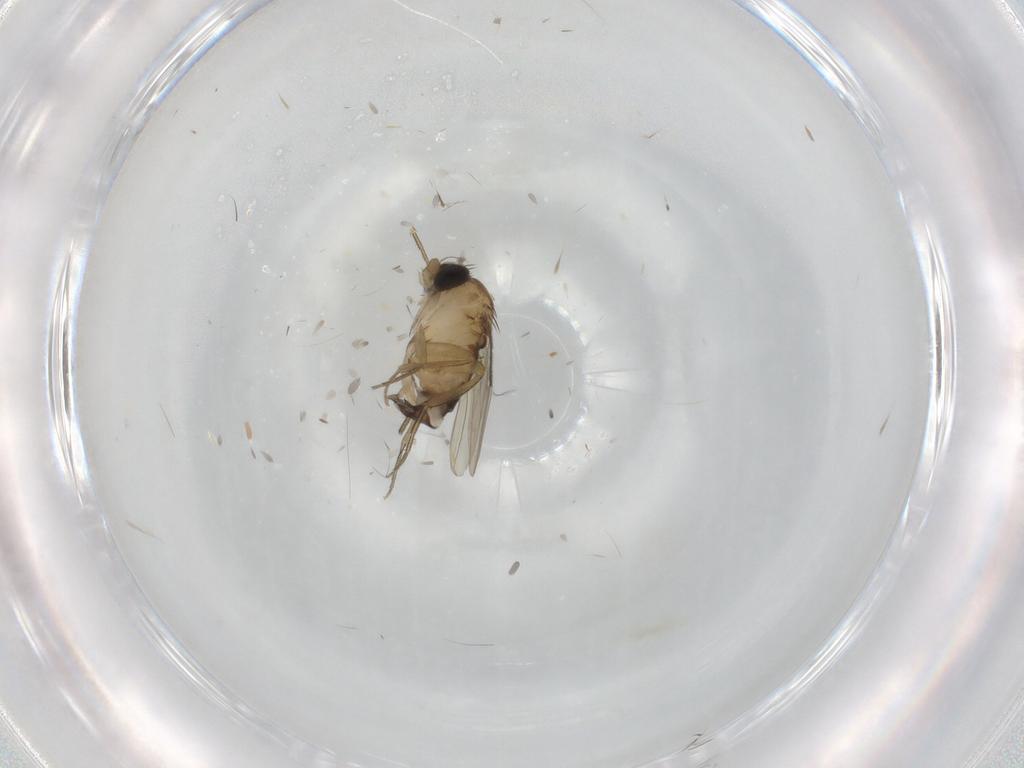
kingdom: Animalia
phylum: Arthropoda
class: Insecta
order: Diptera
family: Phoridae
